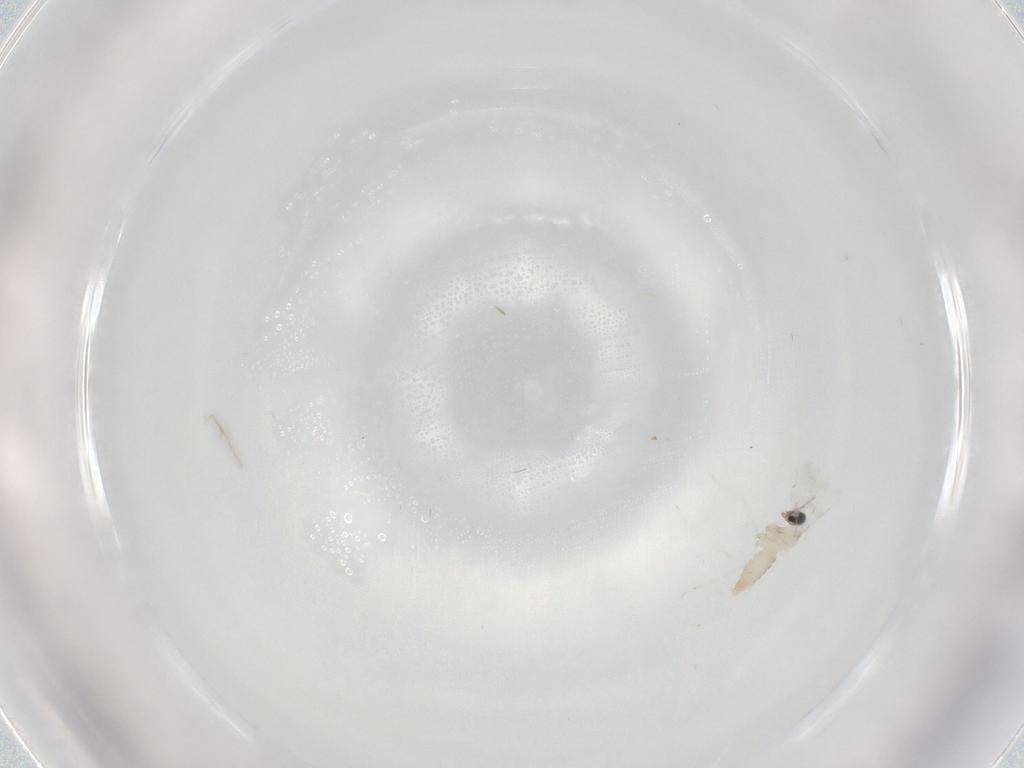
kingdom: Animalia
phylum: Arthropoda
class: Insecta
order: Diptera
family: Cecidomyiidae
